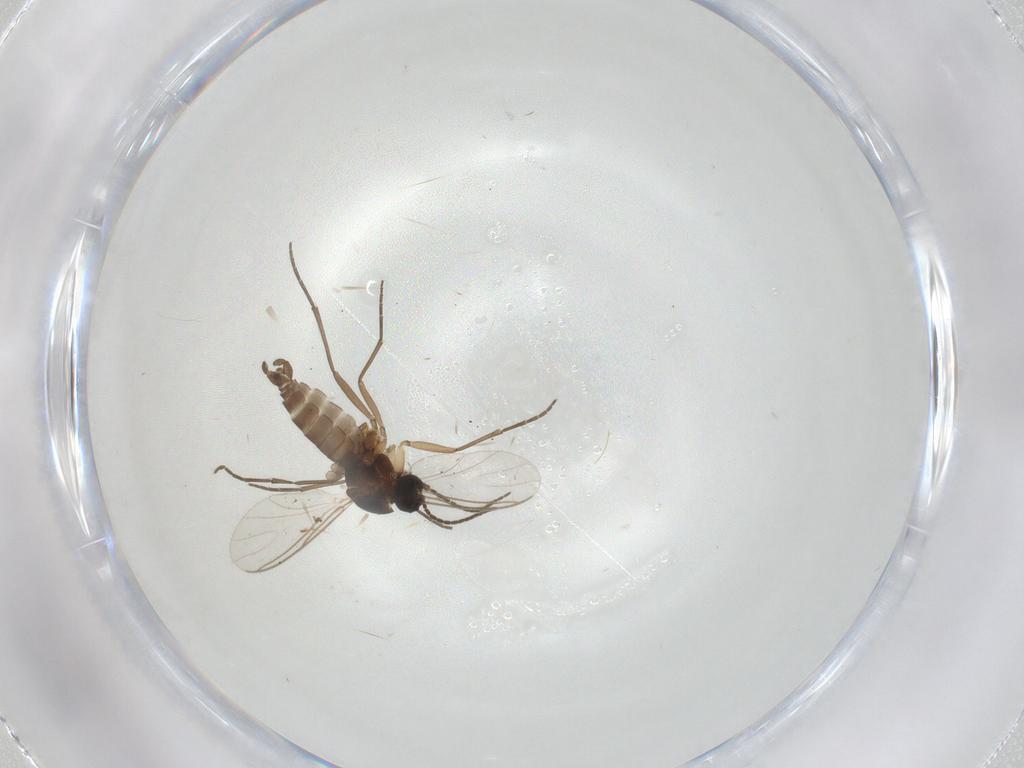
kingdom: Animalia
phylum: Arthropoda
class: Insecta
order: Diptera
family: Sciaridae
